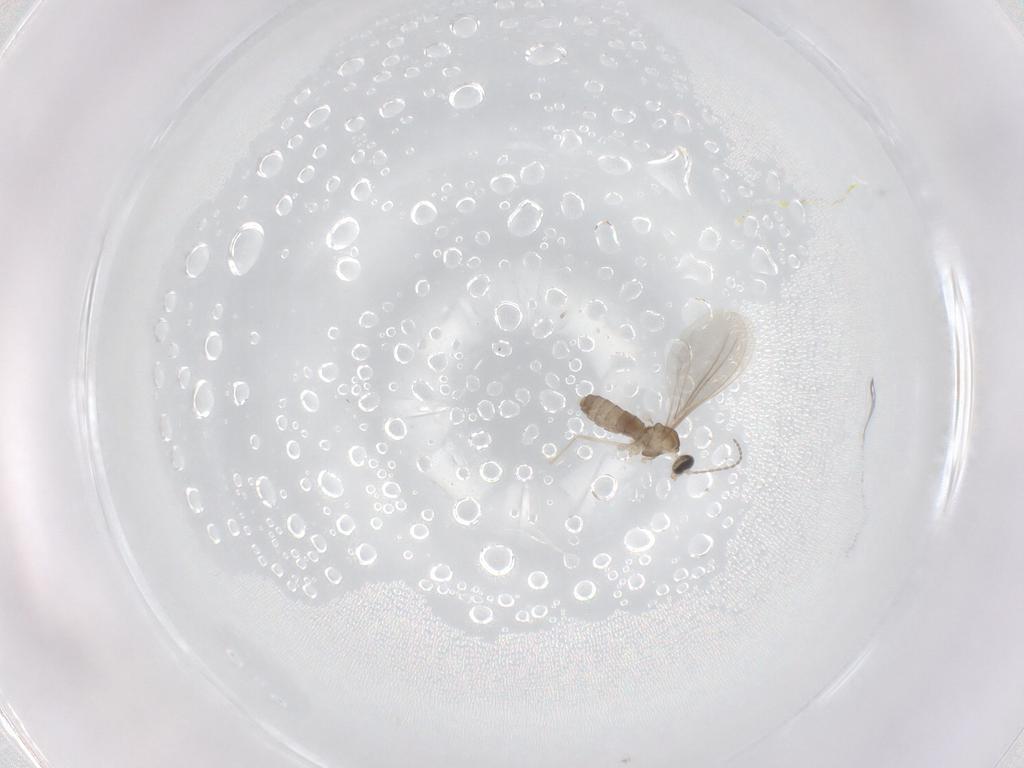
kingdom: Animalia
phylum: Arthropoda
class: Insecta
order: Diptera
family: Cecidomyiidae
